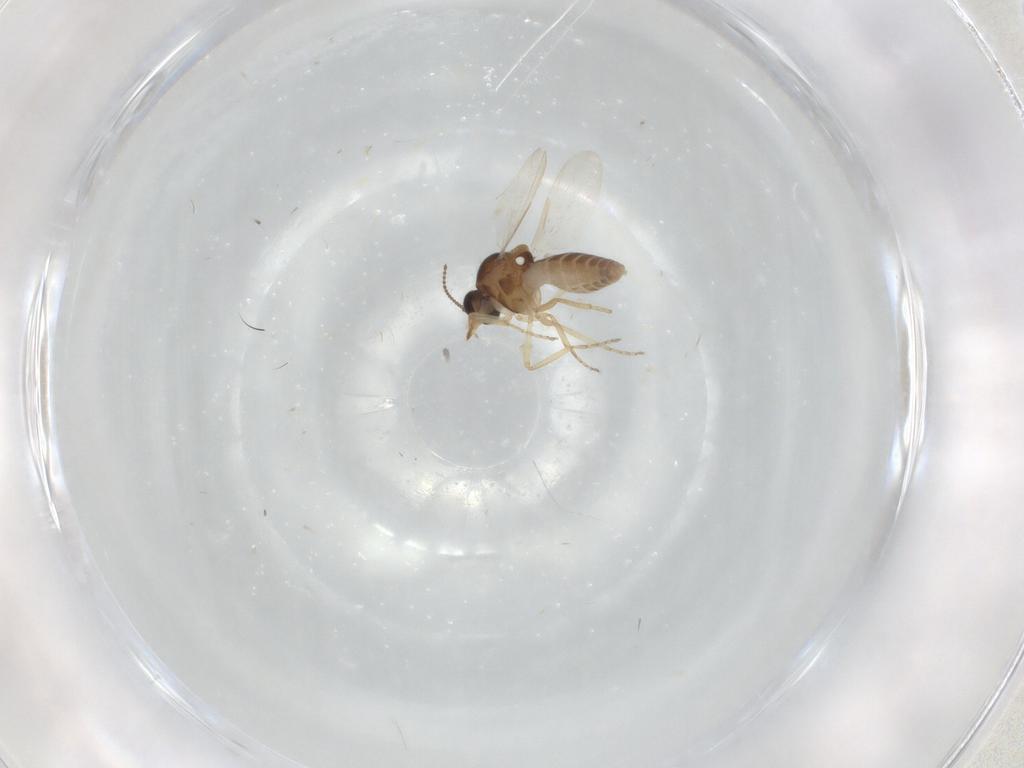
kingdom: Animalia
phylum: Arthropoda
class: Insecta
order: Diptera
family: Ceratopogonidae
